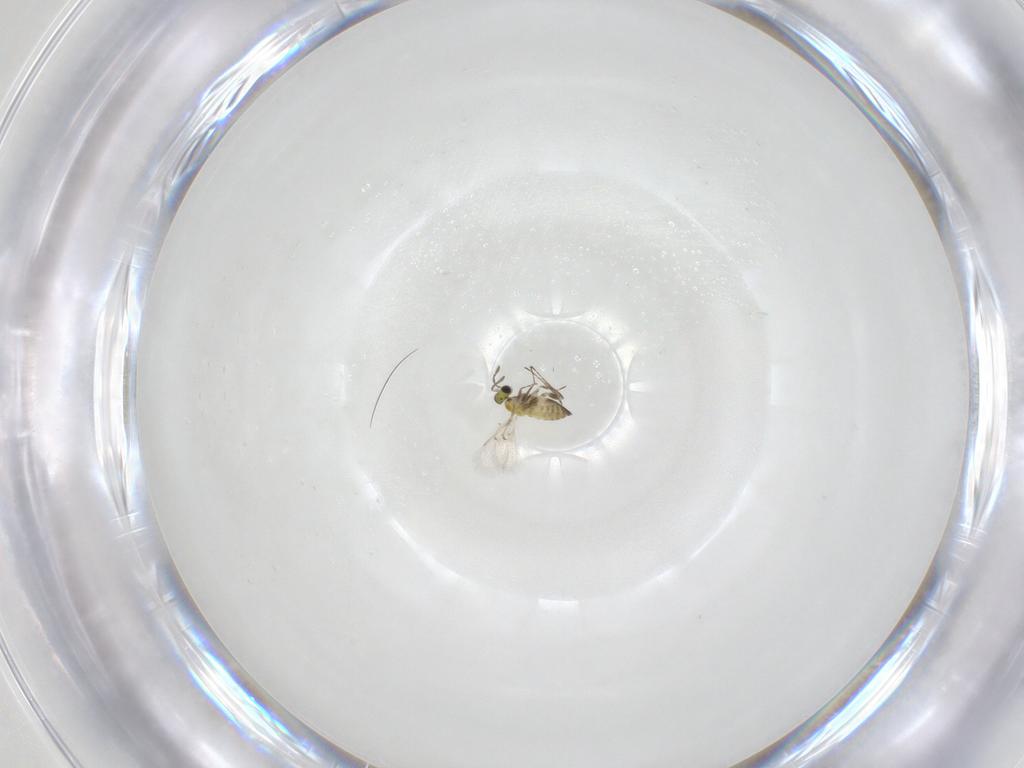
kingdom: Animalia
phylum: Arthropoda
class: Insecta
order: Hymenoptera
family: Trichogrammatidae
